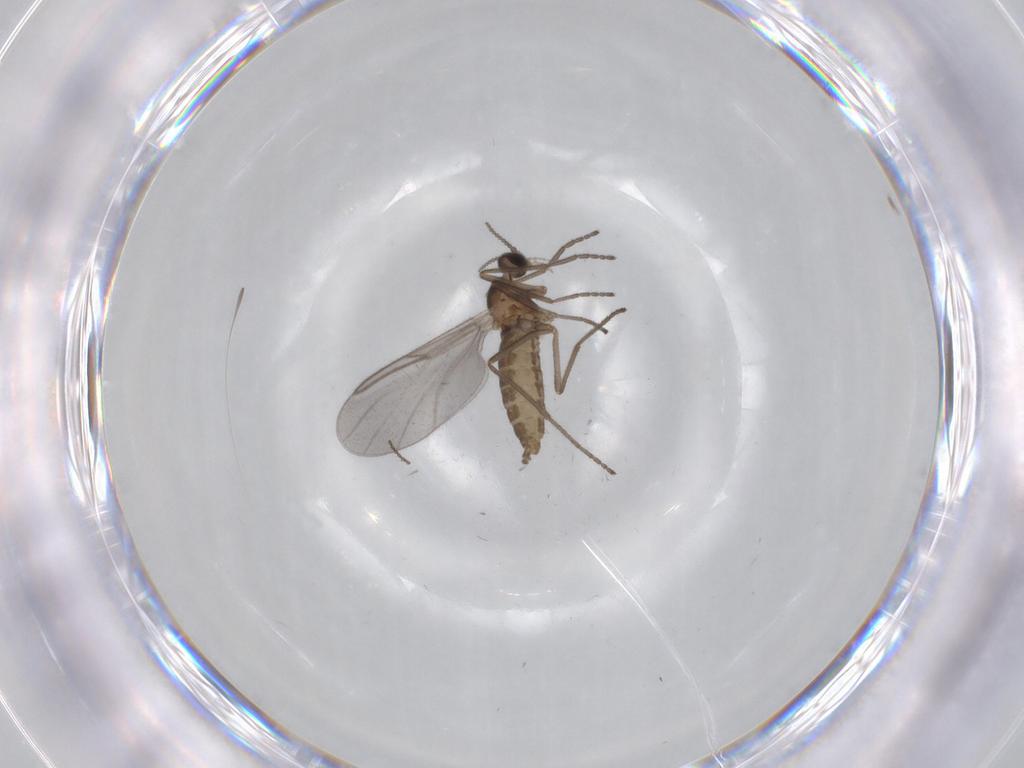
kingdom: Animalia
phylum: Arthropoda
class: Insecta
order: Diptera
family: Cecidomyiidae
